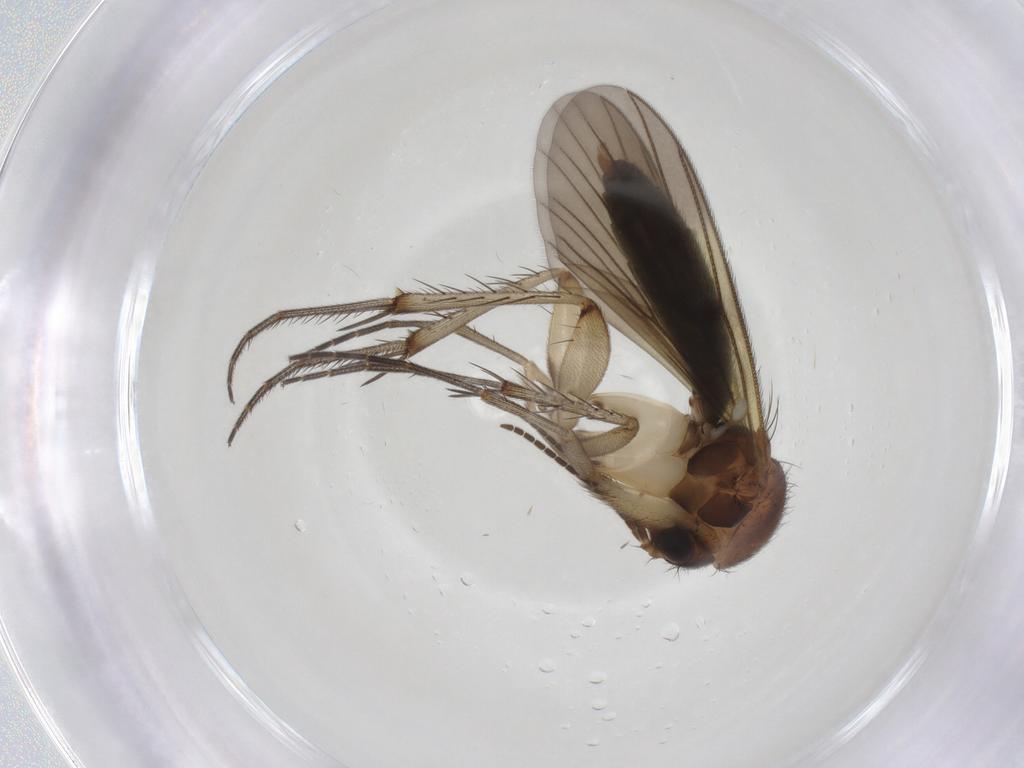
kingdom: Animalia
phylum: Arthropoda
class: Insecta
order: Diptera
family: Mycetophilidae
